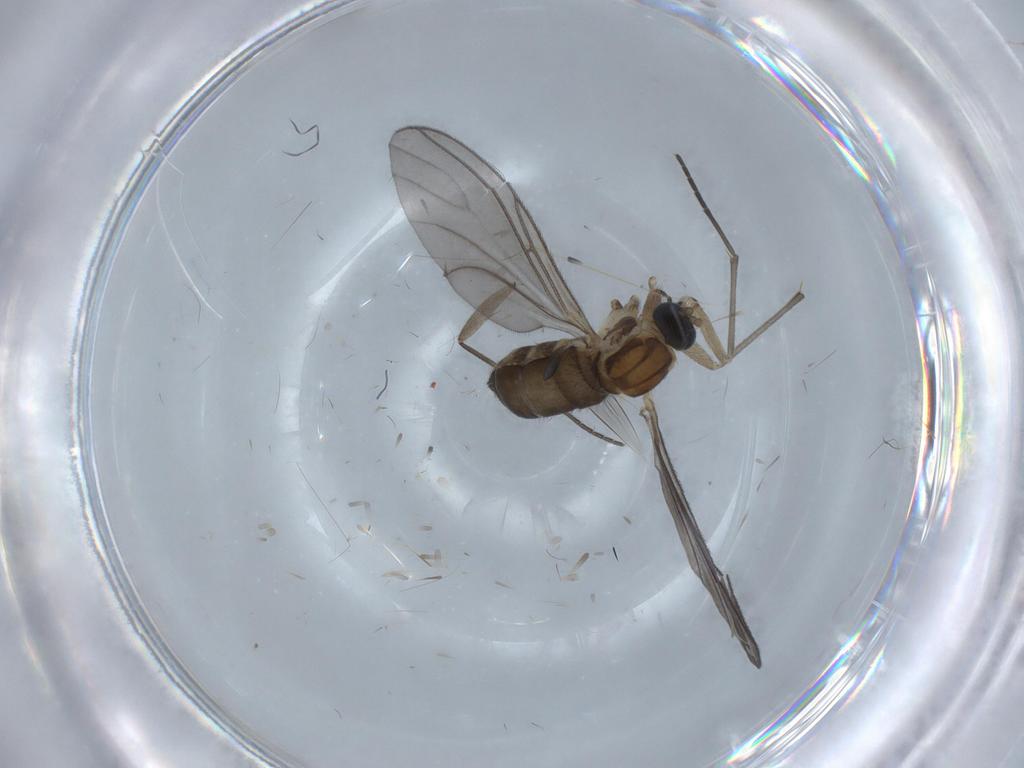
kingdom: Animalia
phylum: Arthropoda
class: Insecta
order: Diptera
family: Sciaridae
